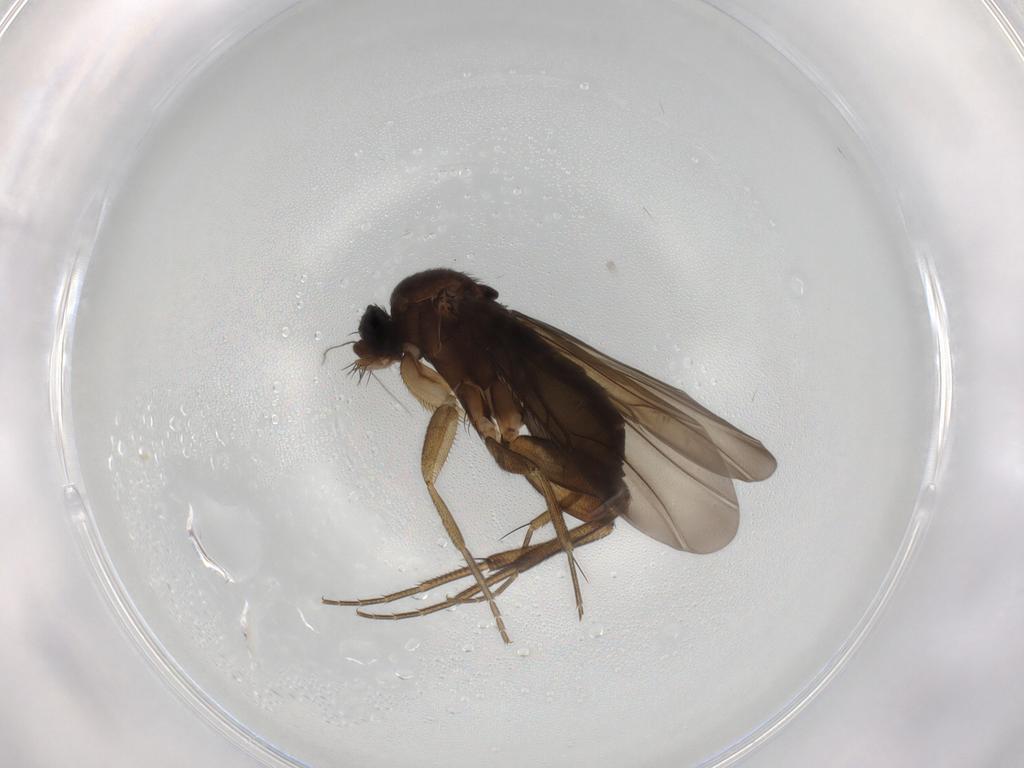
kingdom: Animalia
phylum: Arthropoda
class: Insecta
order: Diptera
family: Phoridae
